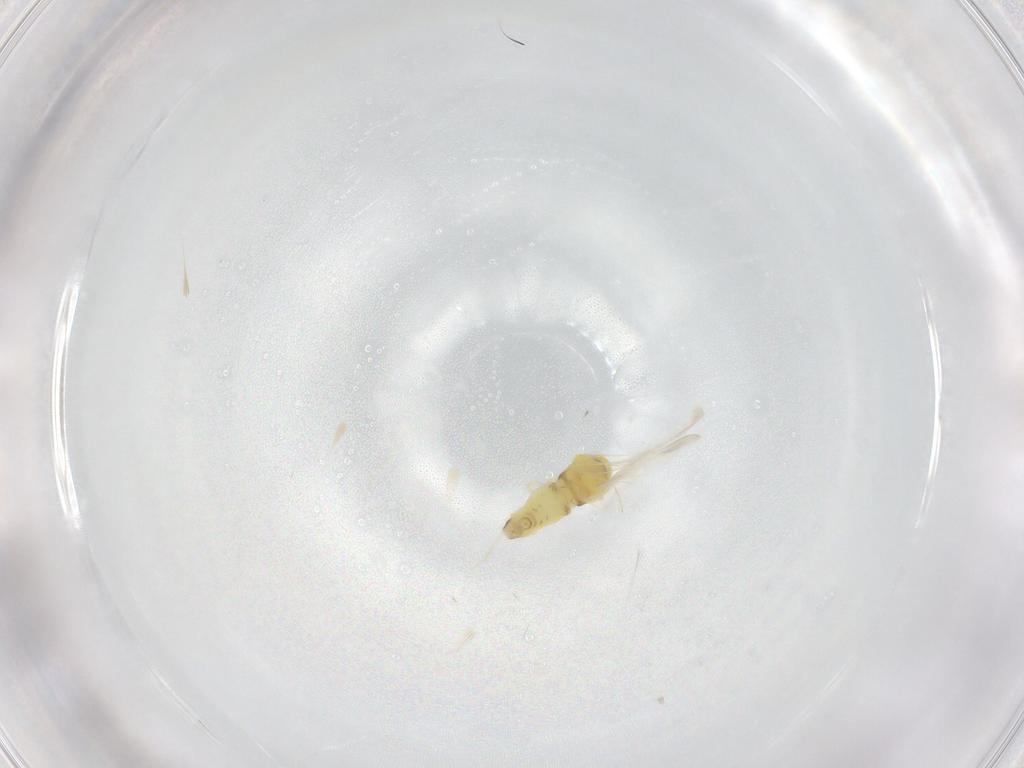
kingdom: Animalia
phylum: Arthropoda
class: Insecta
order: Hemiptera
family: Aleyrodidae
